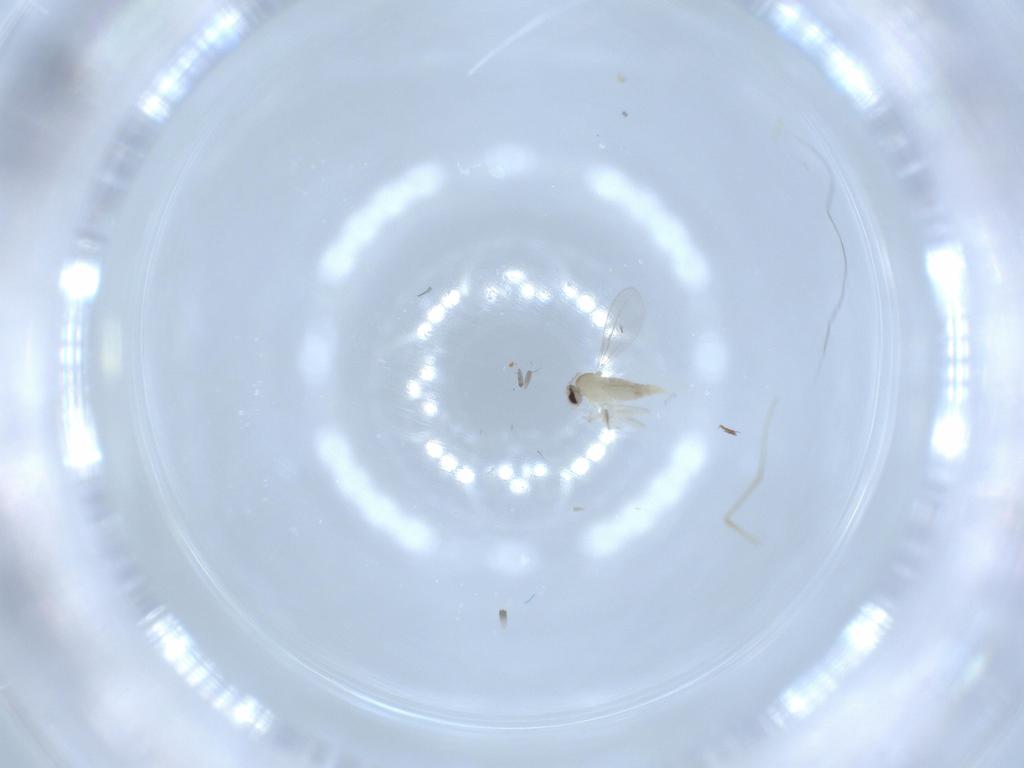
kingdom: Animalia
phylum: Arthropoda
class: Insecta
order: Diptera
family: Cecidomyiidae
